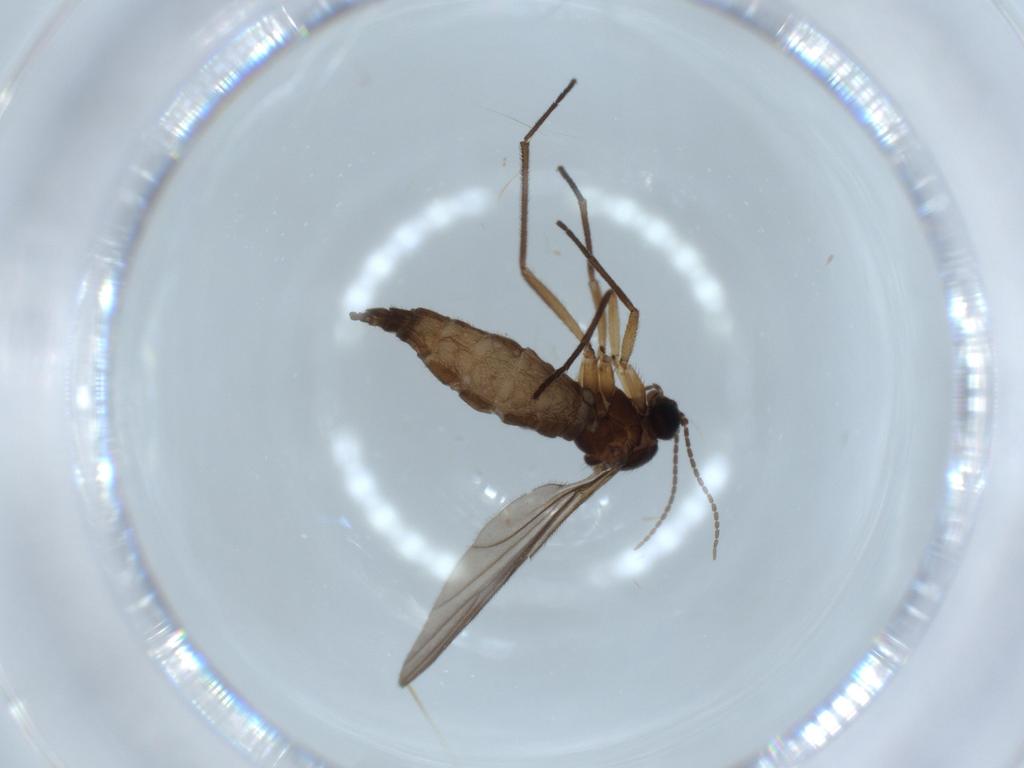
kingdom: Animalia
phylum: Arthropoda
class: Insecta
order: Diptera
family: Sciaridae
